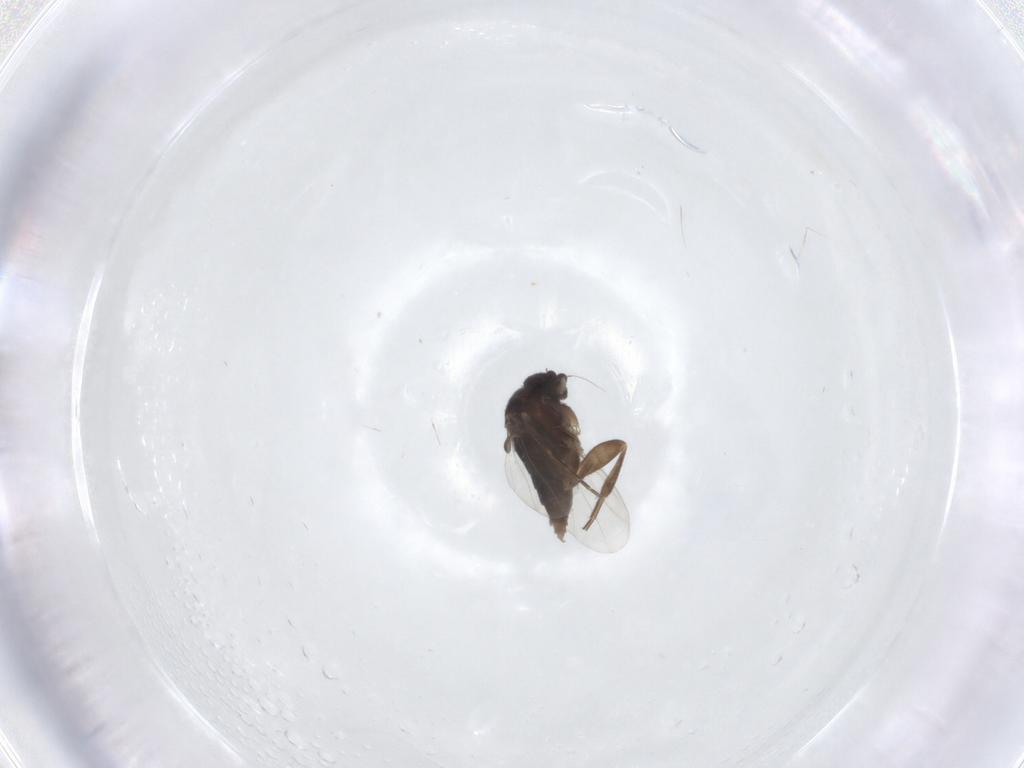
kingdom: Animalia
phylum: Arthropoda
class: Insecta
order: Diptera
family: Phoridae
